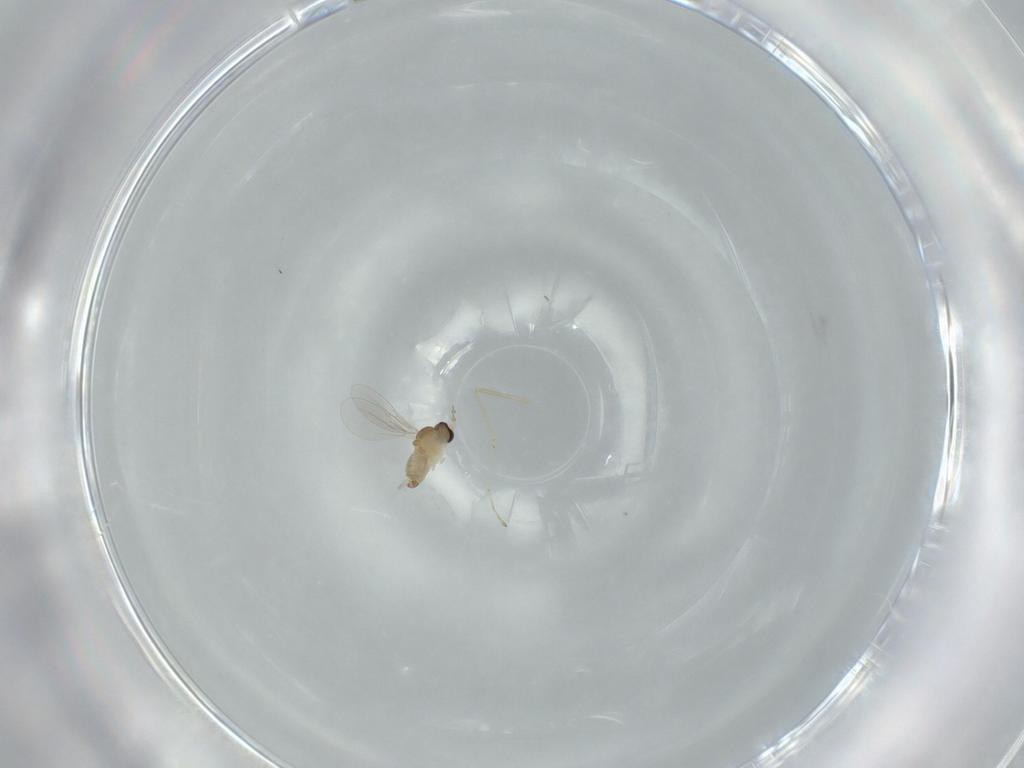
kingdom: Animalia
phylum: Arthropoda
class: Insecta
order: Diptera
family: Cecidomyiidae
